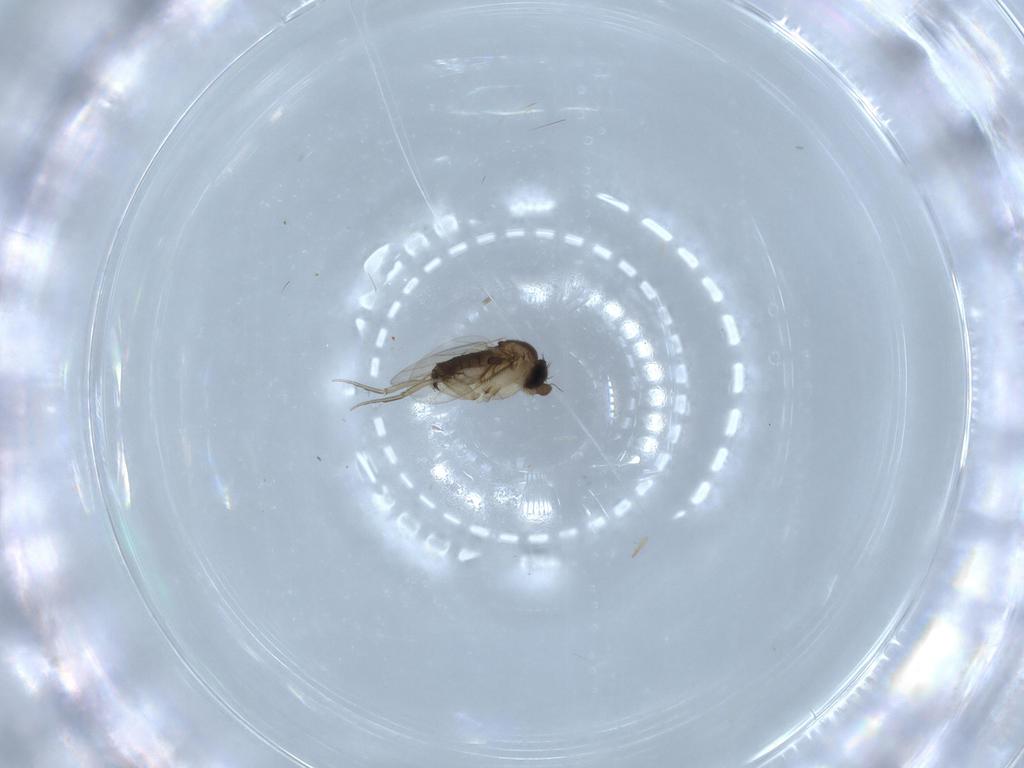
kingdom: Animalia
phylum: Arthropoda
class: Insecta
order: Diptera
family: Phoridae
